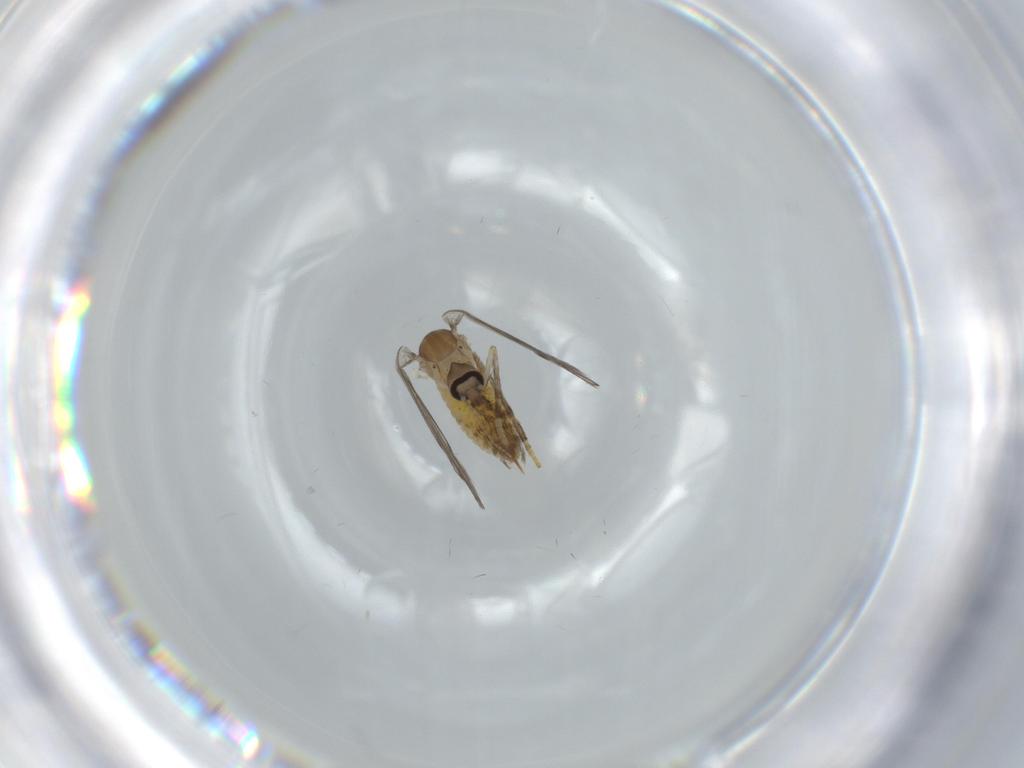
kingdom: Animalia
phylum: Arthropoda
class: Insecta
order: Diptera
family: Psychodidae
